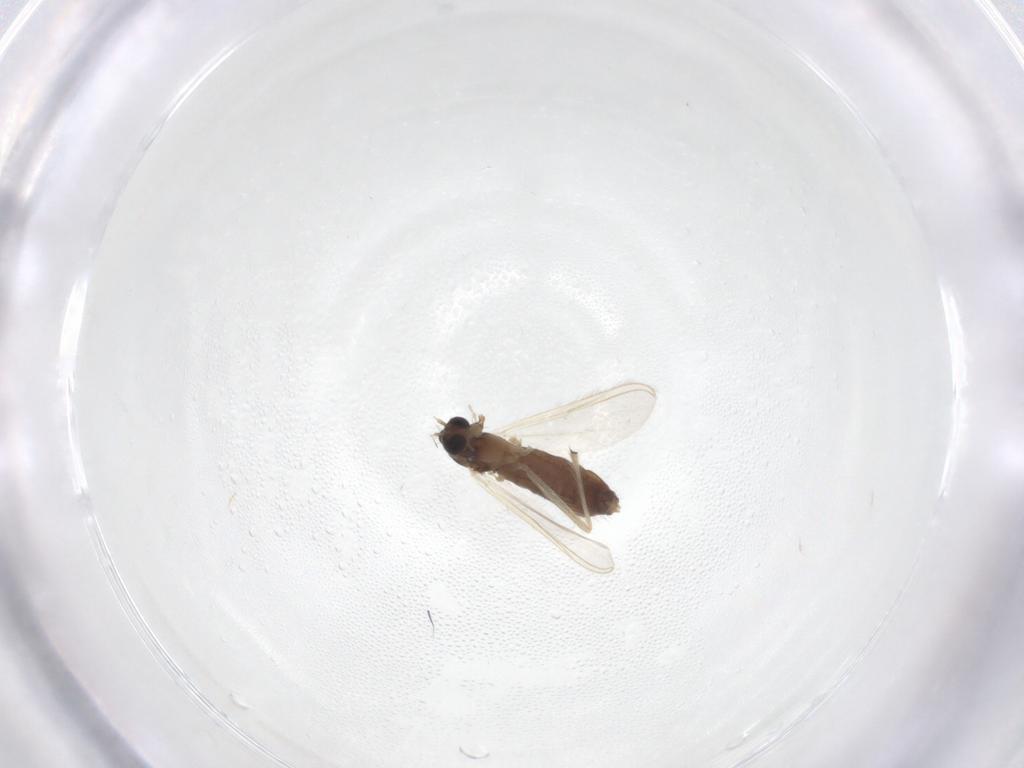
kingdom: Animalia
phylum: Arthropoda
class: Insecta
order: Diptera
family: Chironomidae
